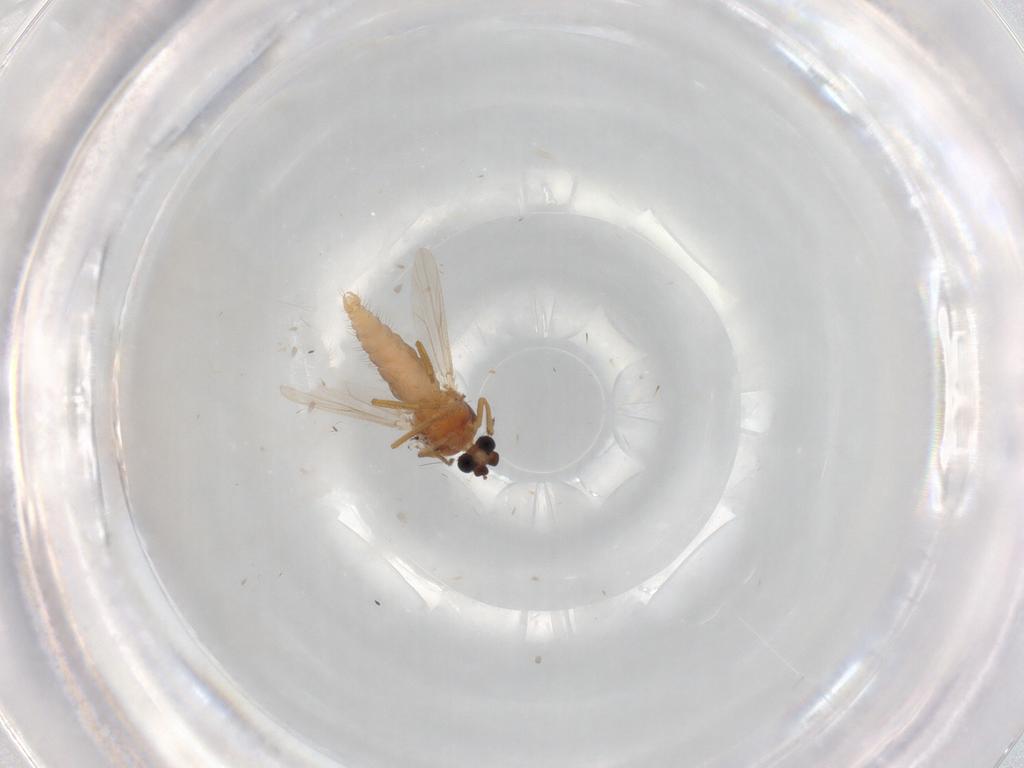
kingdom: Animalia
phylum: Arthropoda
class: Insecta
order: Diptera
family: Ceratopogonidae
